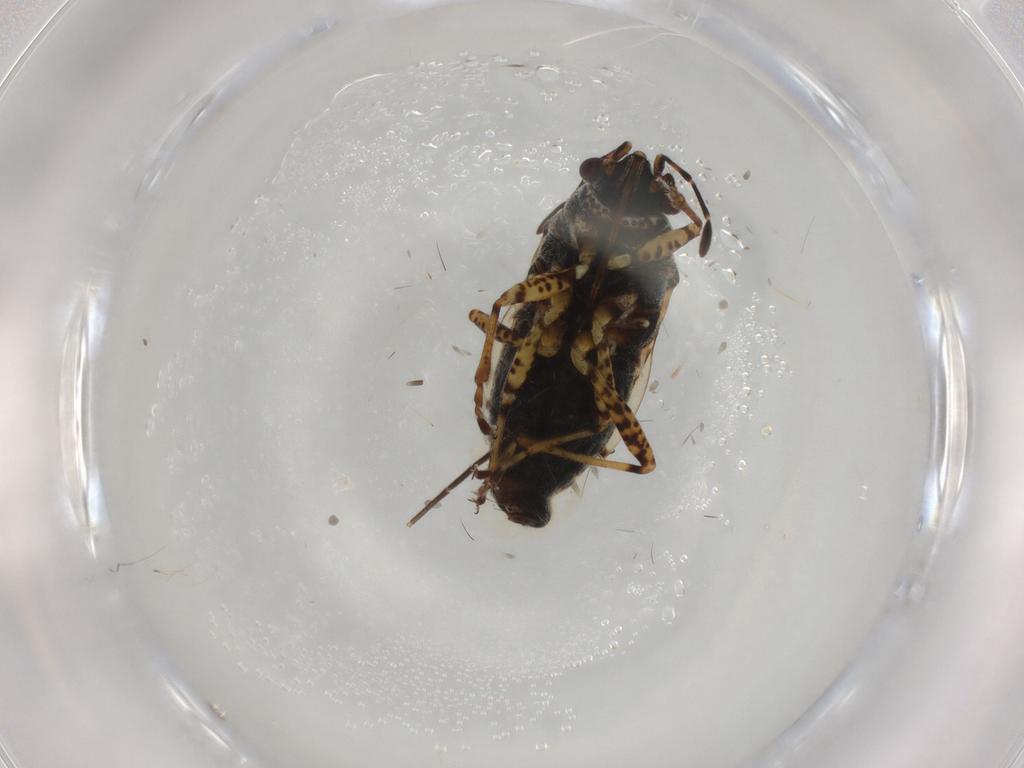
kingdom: Animalia
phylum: Arthropoda
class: Insecta
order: Hemiptera
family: Lygaeidae
